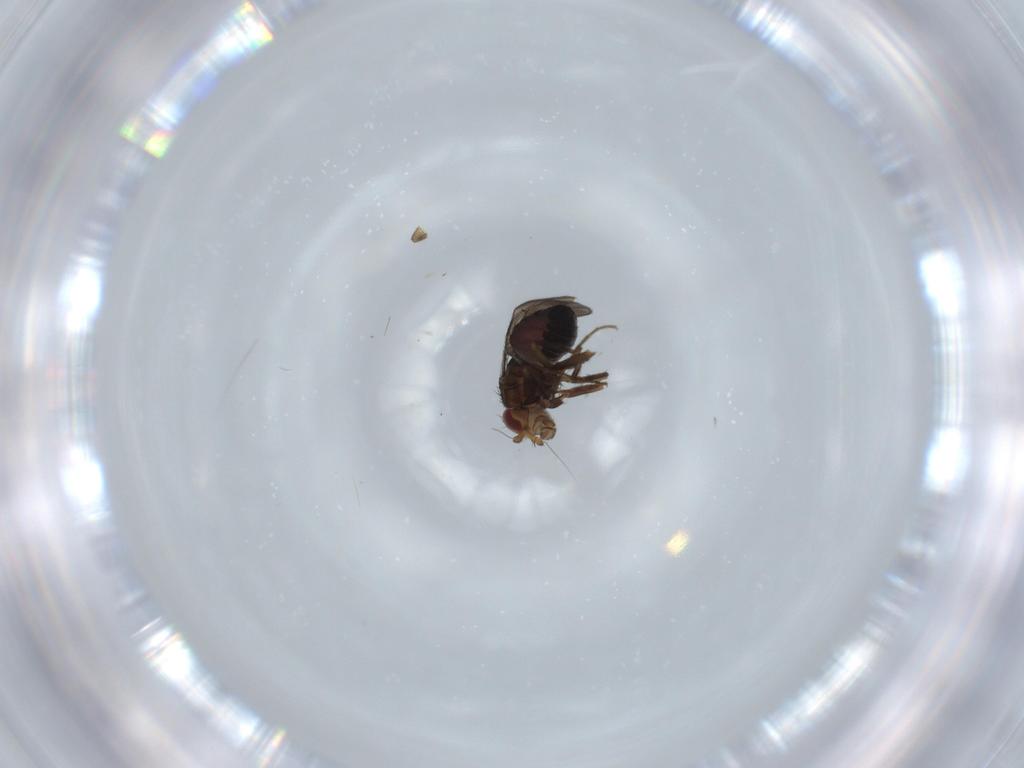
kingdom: Animalia
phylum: Arthropoda
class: Insecta
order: Diptera
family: Sphaeroceridae
